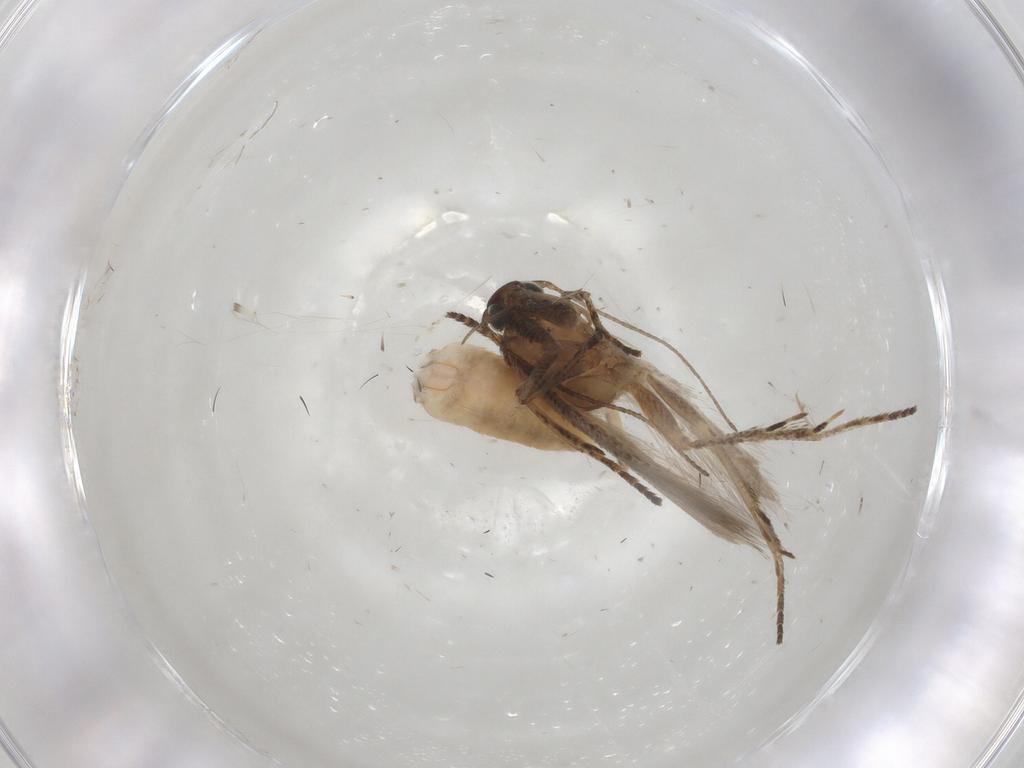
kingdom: Animalia
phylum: Arthropoda
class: Insecta
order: Lepidoptera
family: Gelechiidae
